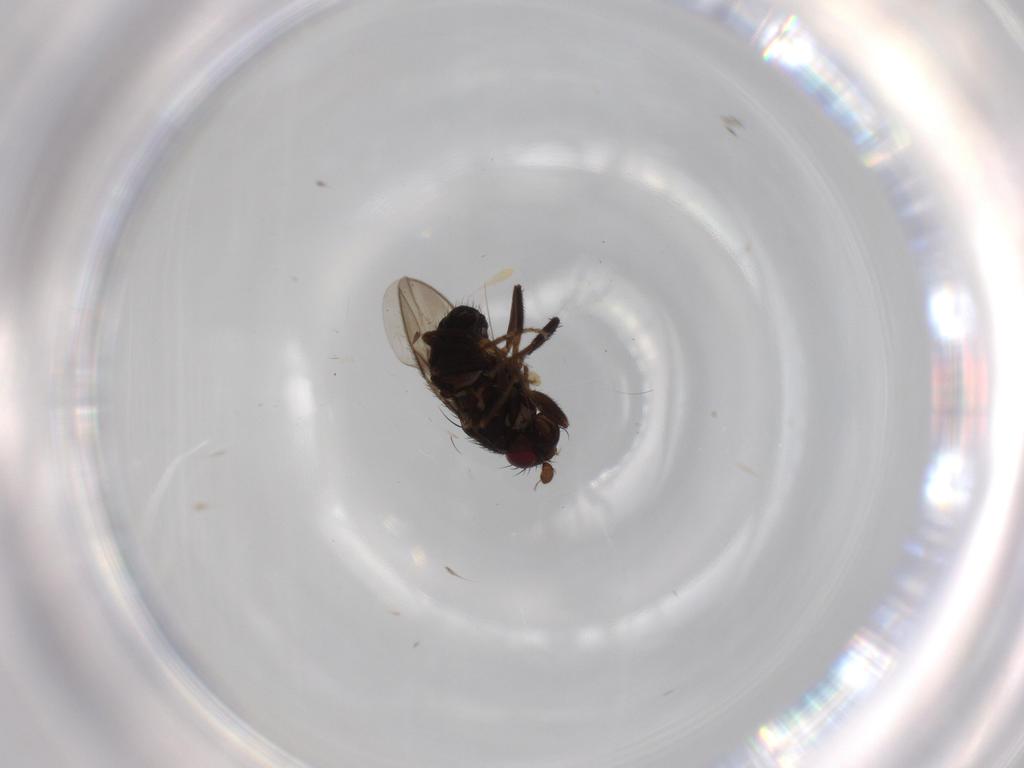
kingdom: Animalia
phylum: Arthropoda
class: Insecta
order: Diptera
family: Sphaeroceridae
